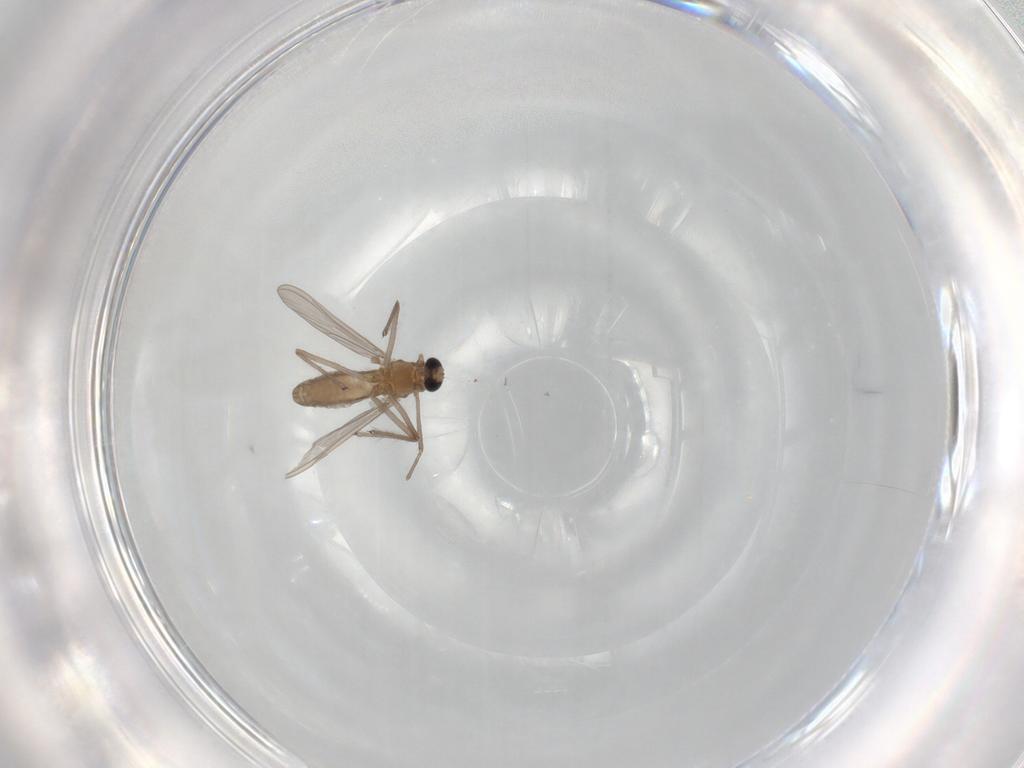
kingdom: Animalia
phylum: Arthropoda
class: Insecta
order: Diptera
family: Chironomidae
